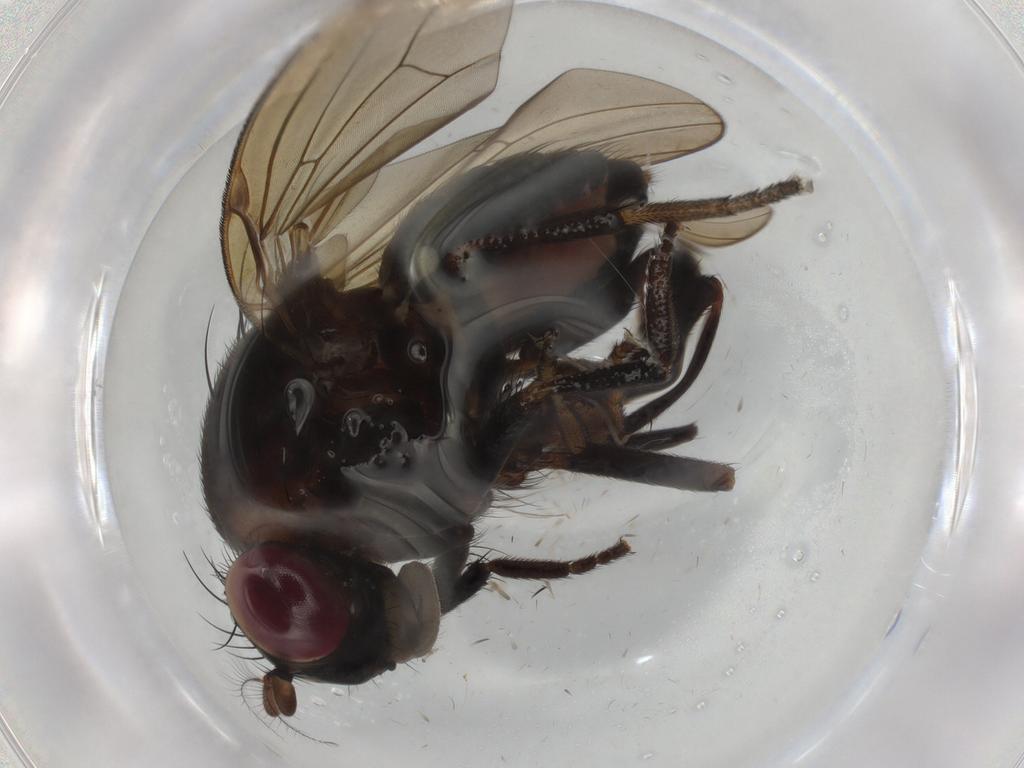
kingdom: Animalia
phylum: Arthropoda
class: Insecta
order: Diptera
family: Lauxaniidae
